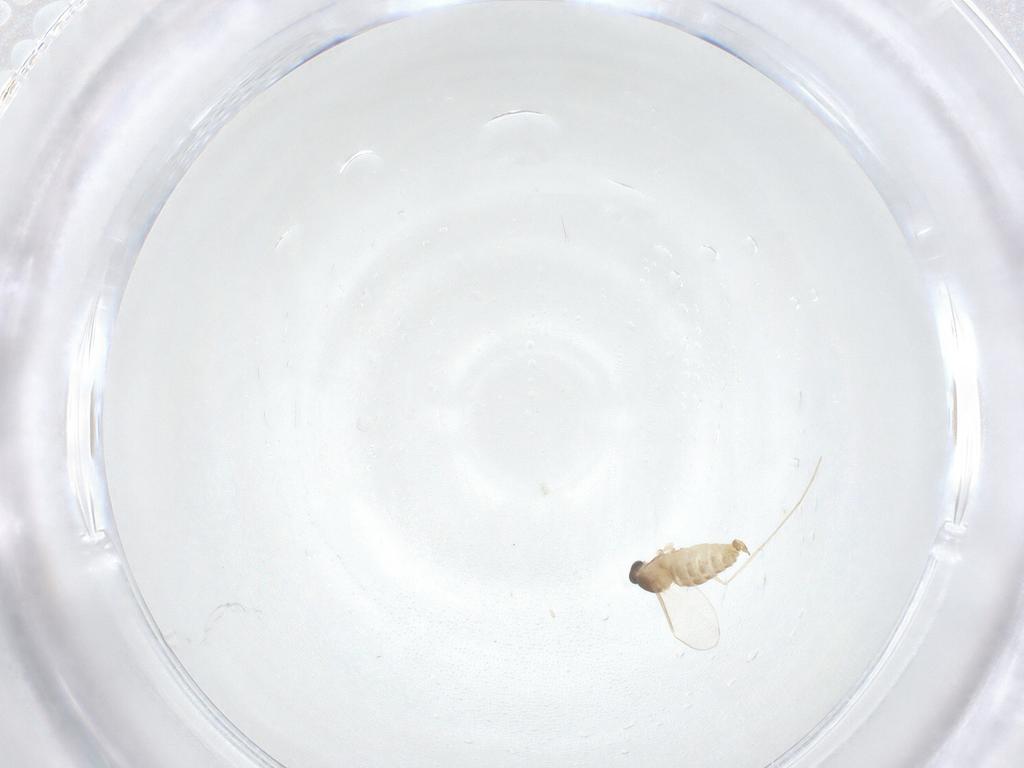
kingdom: Animalia
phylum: Arthropoda
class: Insecta
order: Diptera
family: Cecidomyiidae
